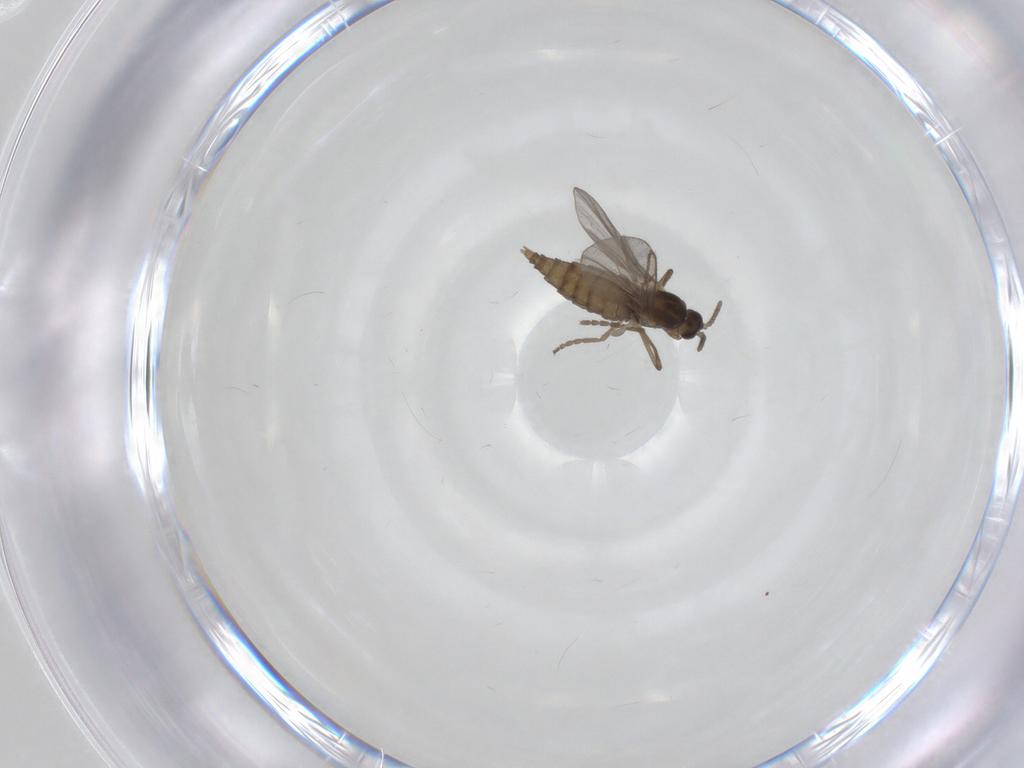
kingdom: Animalia
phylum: Arthropoda
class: Insecta
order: Diptera
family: Cecidomyiidae
